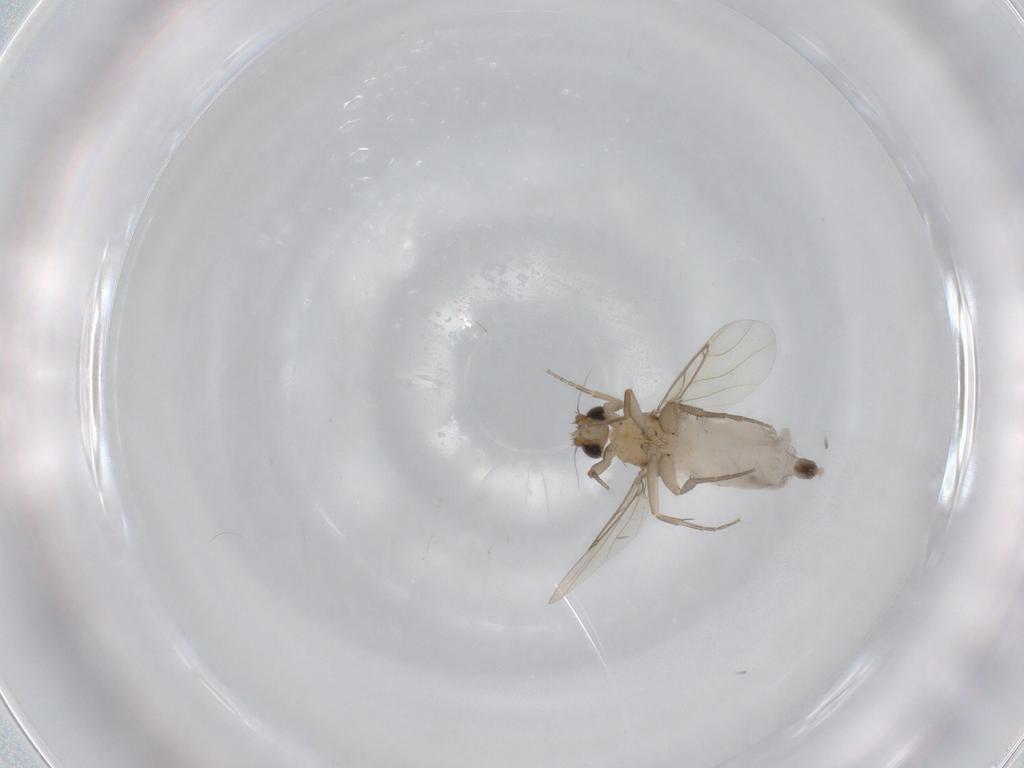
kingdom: Animalia
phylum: Arthropoda
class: Insecta
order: Diptera
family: Phoridae
